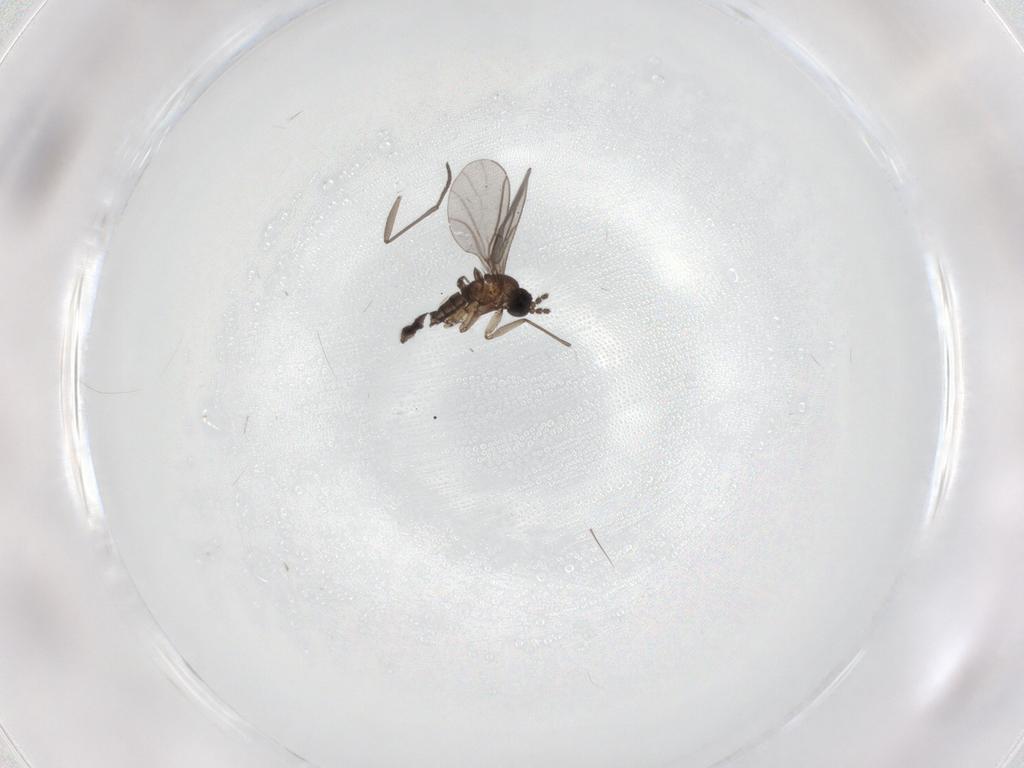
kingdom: Animalia
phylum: Arthropoda
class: Insecta
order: Diptera
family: Cecidomyiidae
